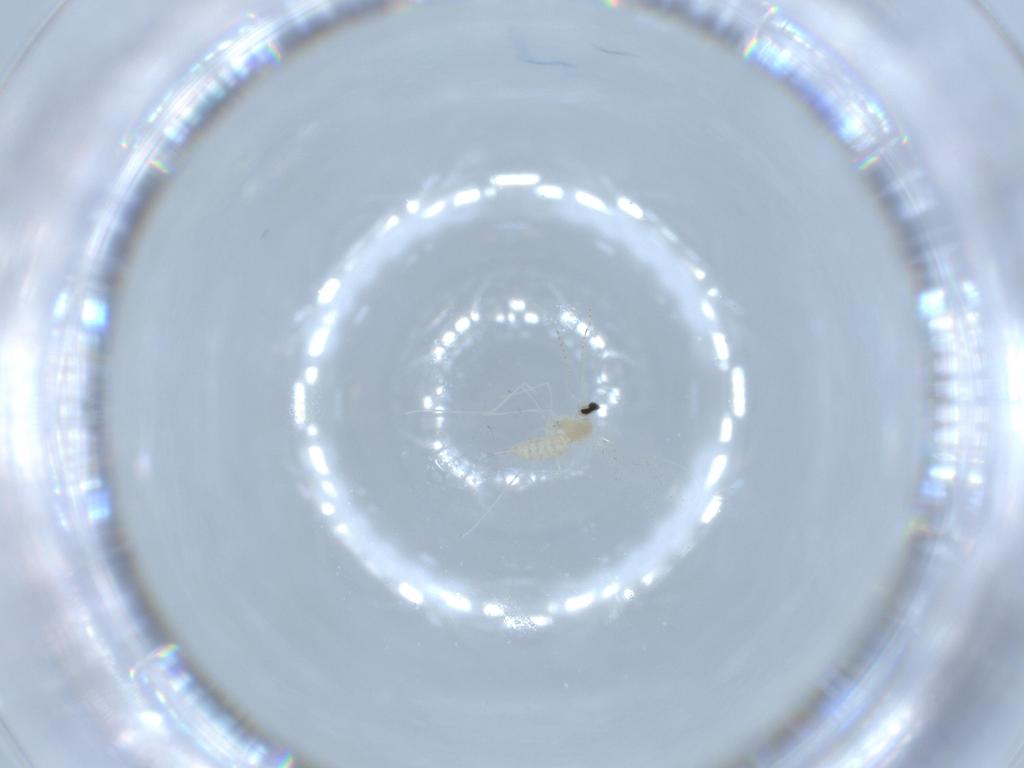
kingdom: Animalia
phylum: Arthropoda
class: Insecta
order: Diptera
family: Cecidomyiidae
